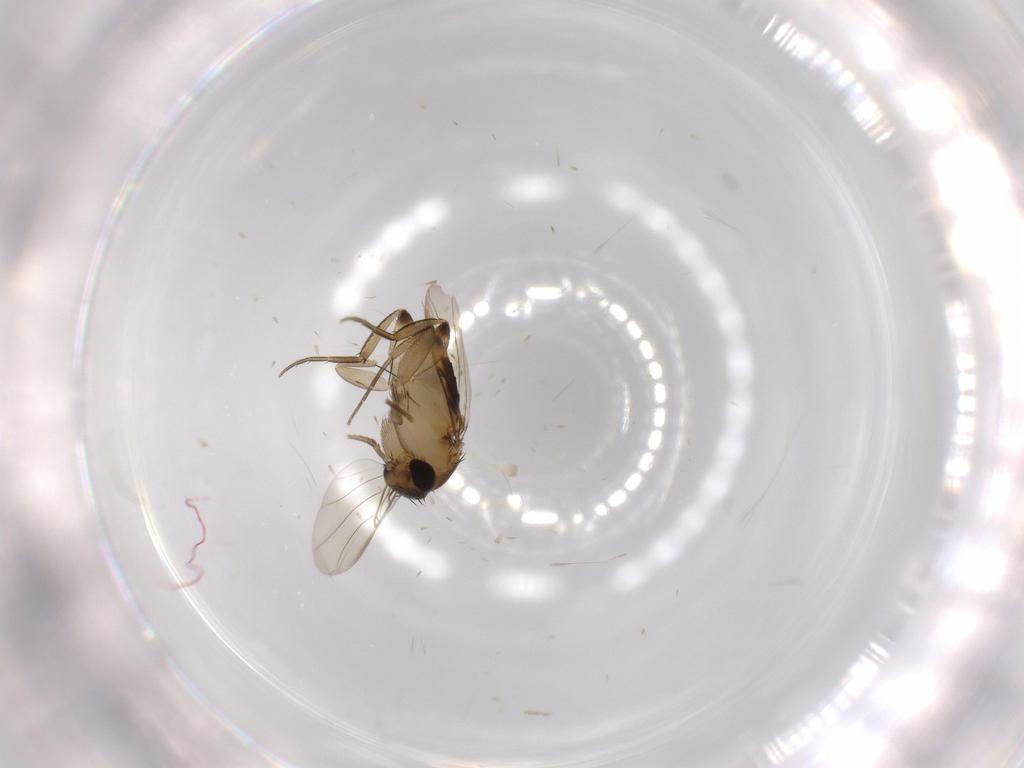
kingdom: Animalia
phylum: Arthropoda
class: Insecta
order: Diptera
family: Phoridae
